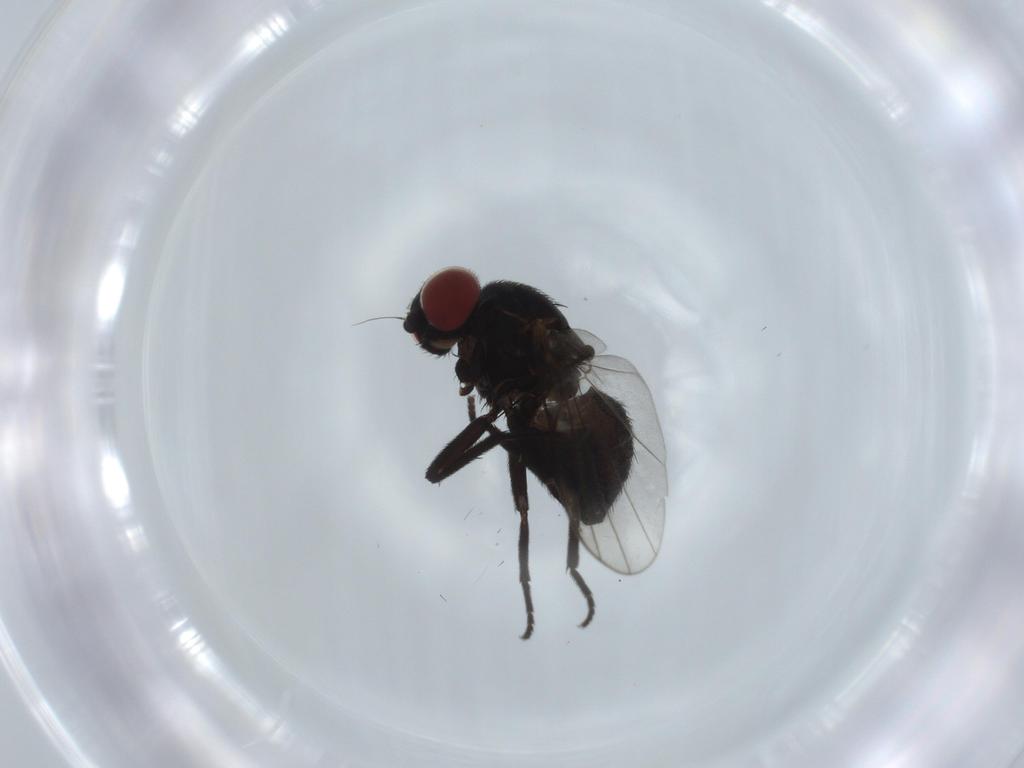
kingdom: Animalia
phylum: Arthropoda
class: Insecta
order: Diptera
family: Agromyzidae
